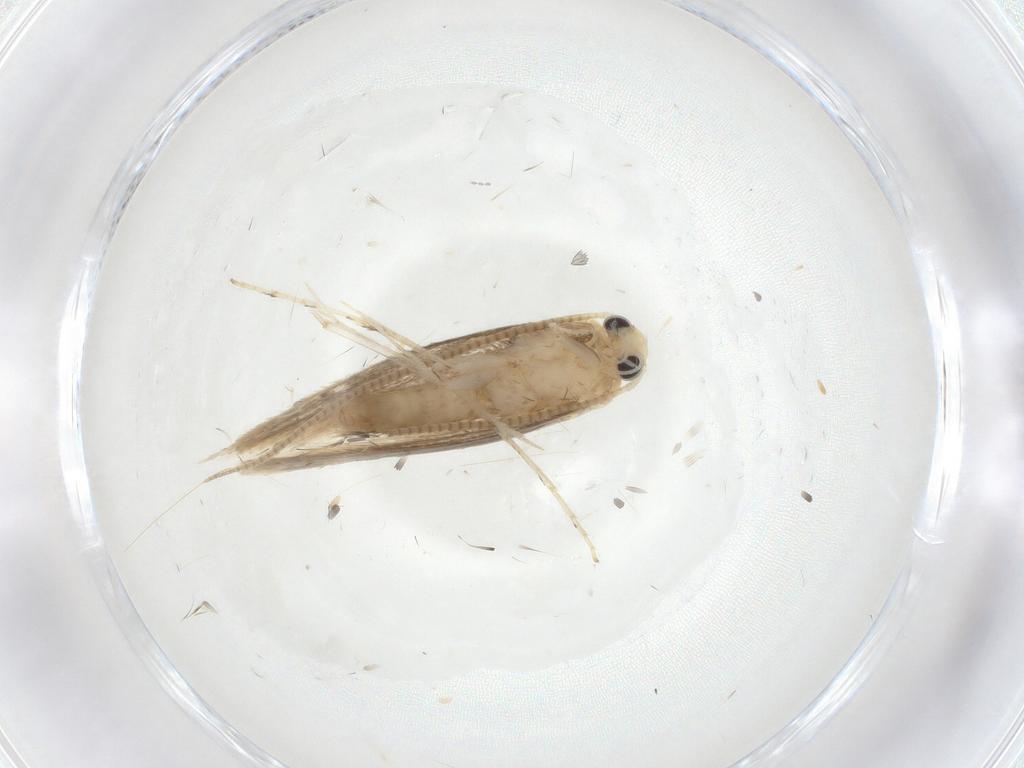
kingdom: Animalia
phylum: Arthropoda
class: Insecta
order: Lepidoptera
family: Gracillariidae
